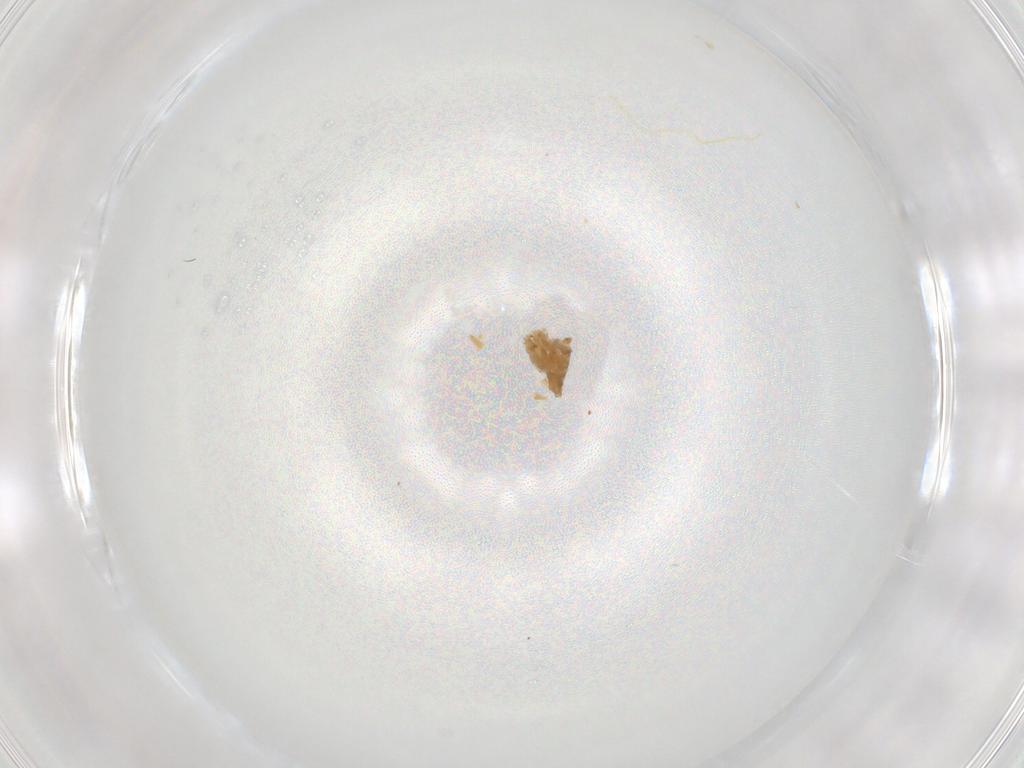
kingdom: Animalia
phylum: Arthropoda
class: Insecta
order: Diptera
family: Cecidomyiidae
